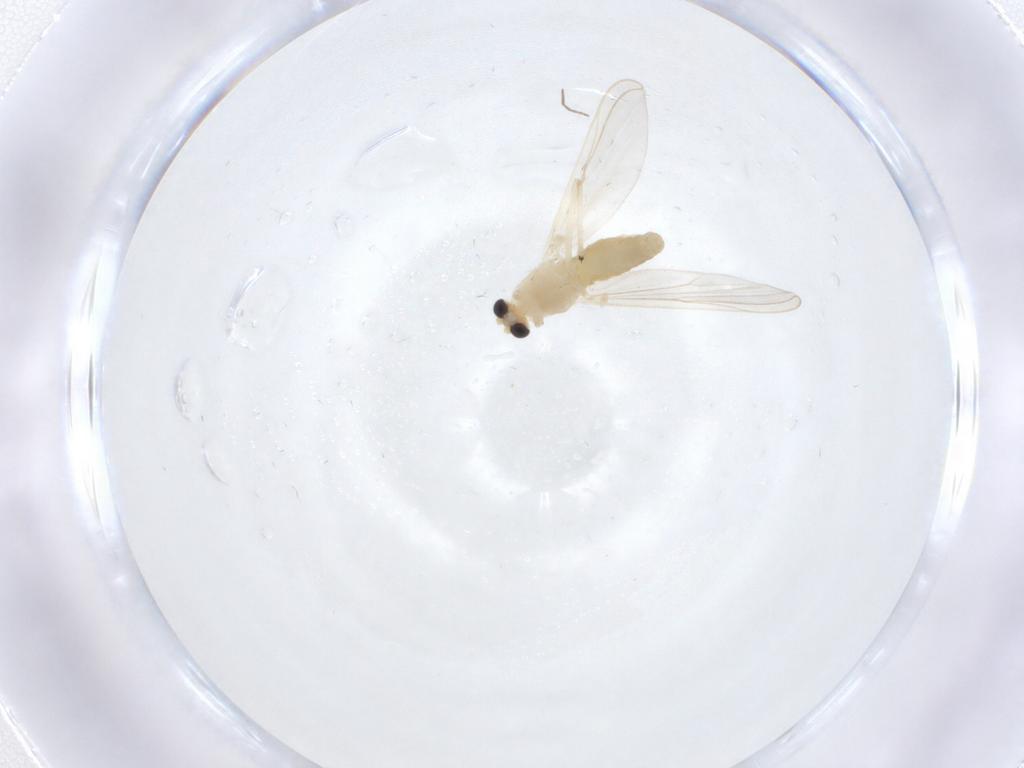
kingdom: Animalia
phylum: Arthropoda
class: Insecta
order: Diptera
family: Chironomidae
